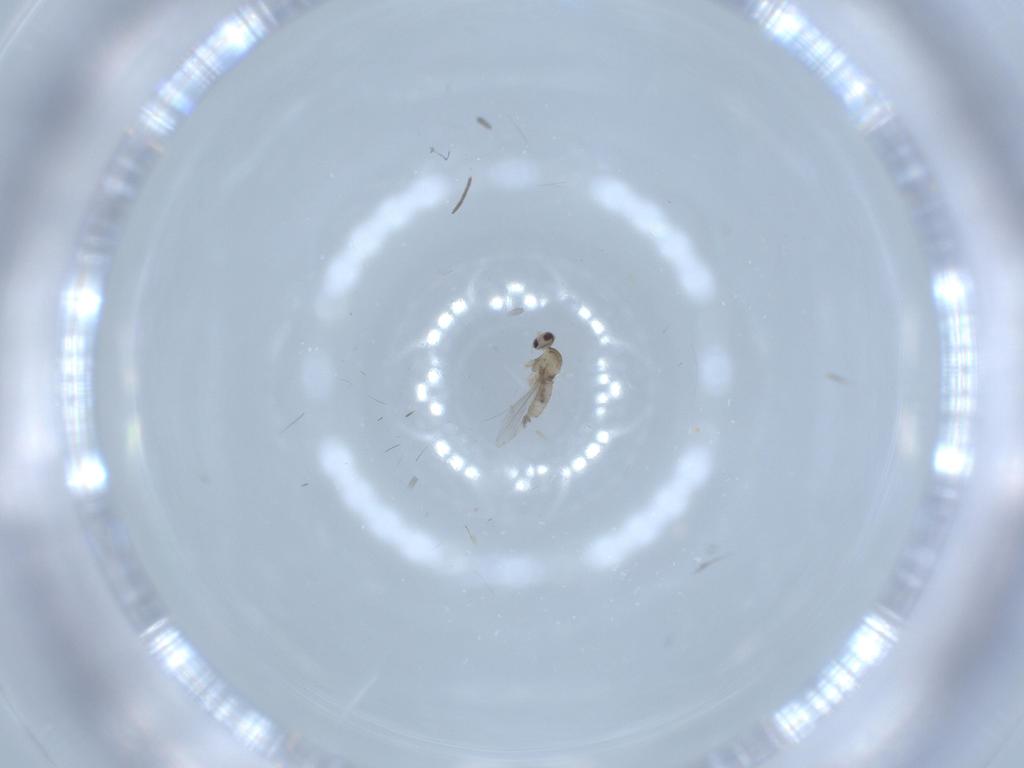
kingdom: Animalia
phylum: Arthropoda
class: Insecta
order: Diptera
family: Cecidomyiidae
